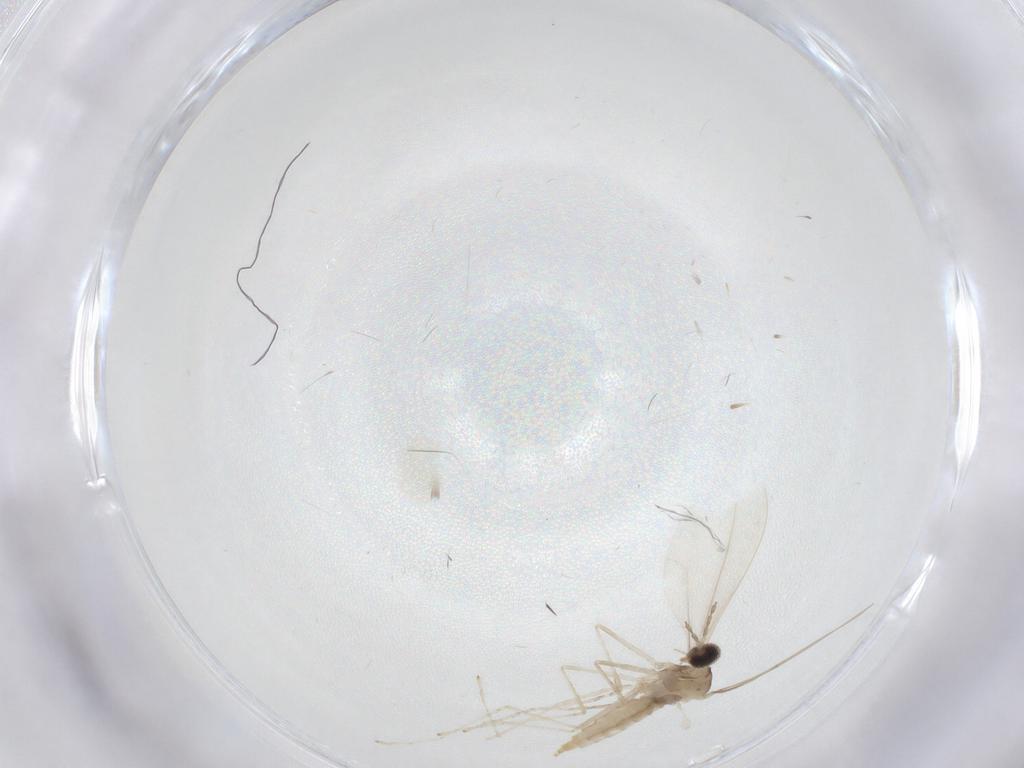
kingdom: Animalia
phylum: Arthropoda
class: Insecta
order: Diptera
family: Cecidomyiidae
